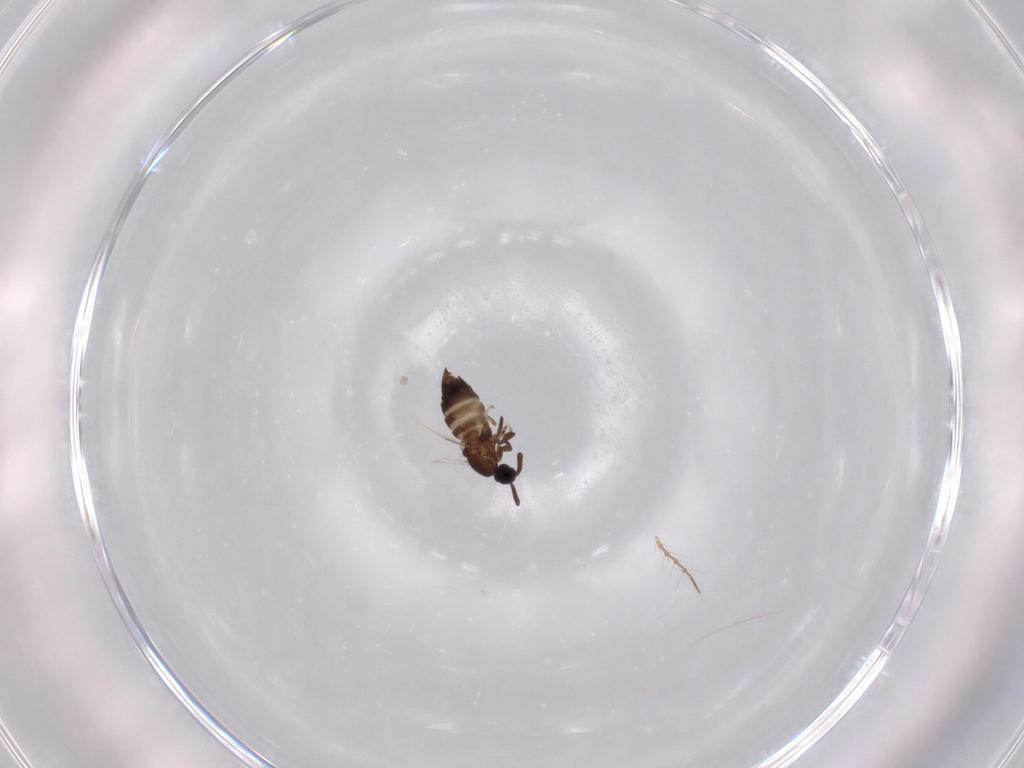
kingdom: Animalia
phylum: Arthropoda
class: Insecta
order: Diptera
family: Scatopsidae
